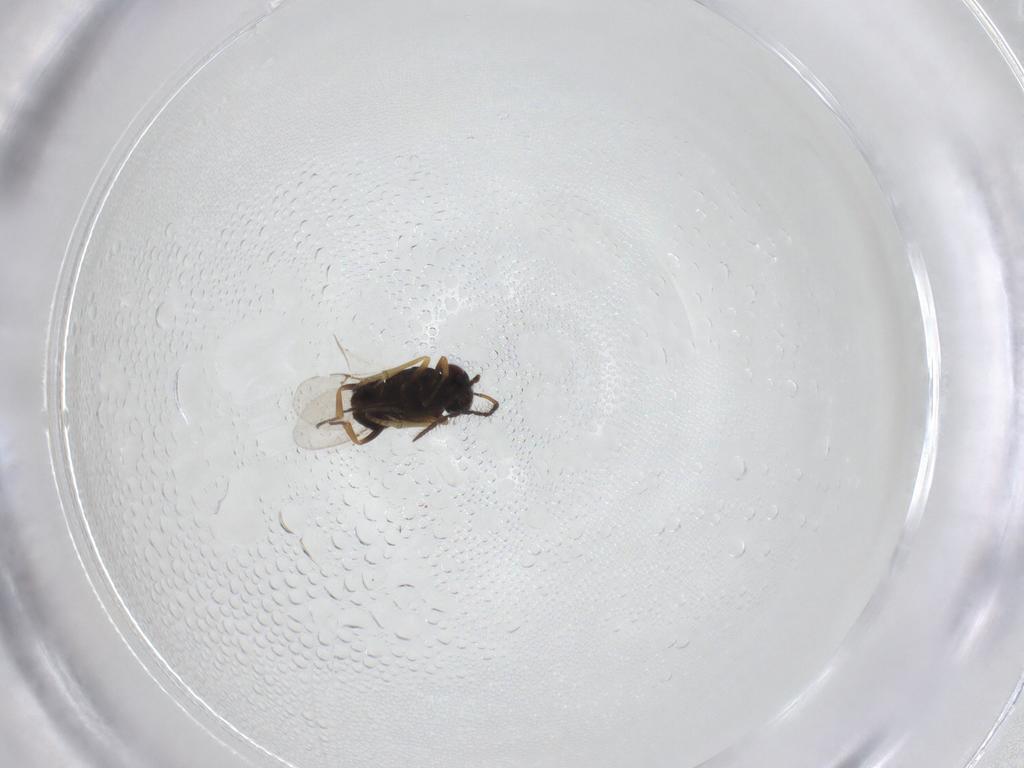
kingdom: Animalia
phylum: Arthropoda
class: Insecta
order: Hymenoptera
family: Encyrtidae
